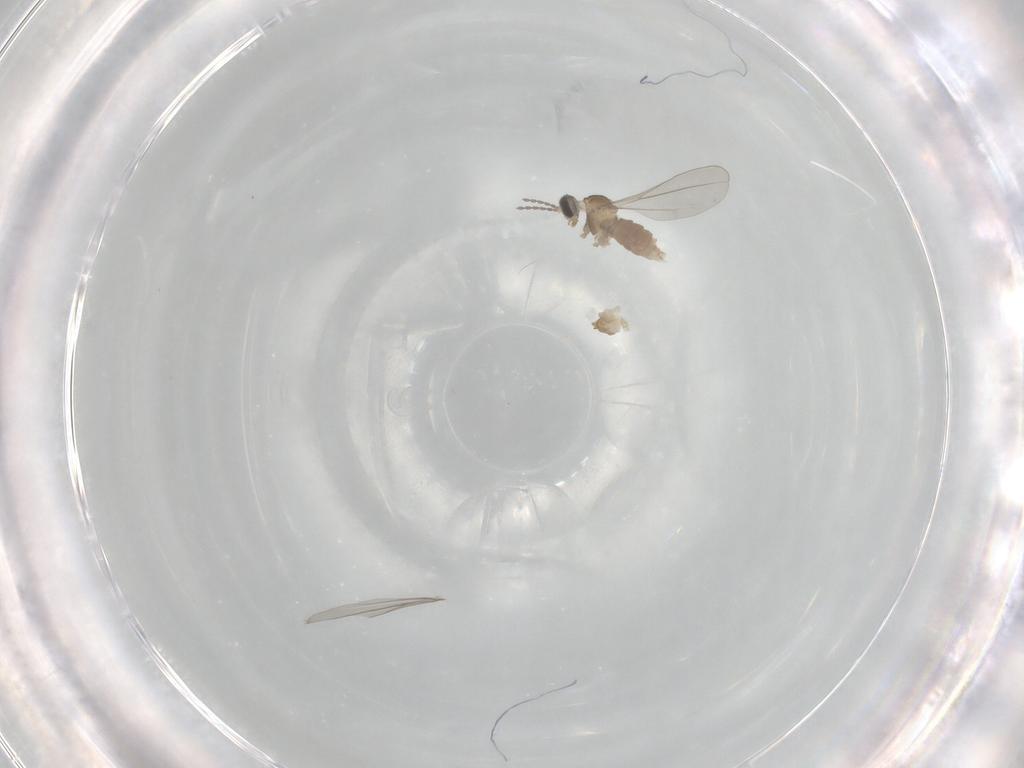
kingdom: Animalia
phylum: Arthropoda
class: Insecta
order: Diptera
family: Cecidomyiidae
